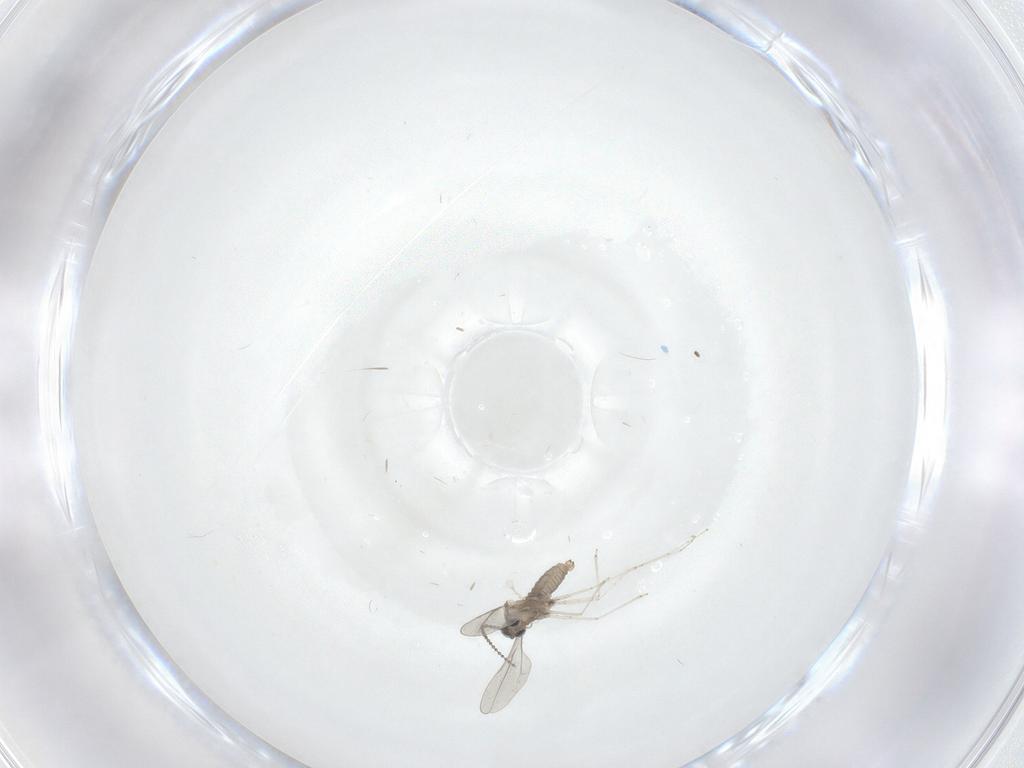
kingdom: Animalia
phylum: Arthropoda
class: Insecta
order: Diptera
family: Cecidomyiidae
